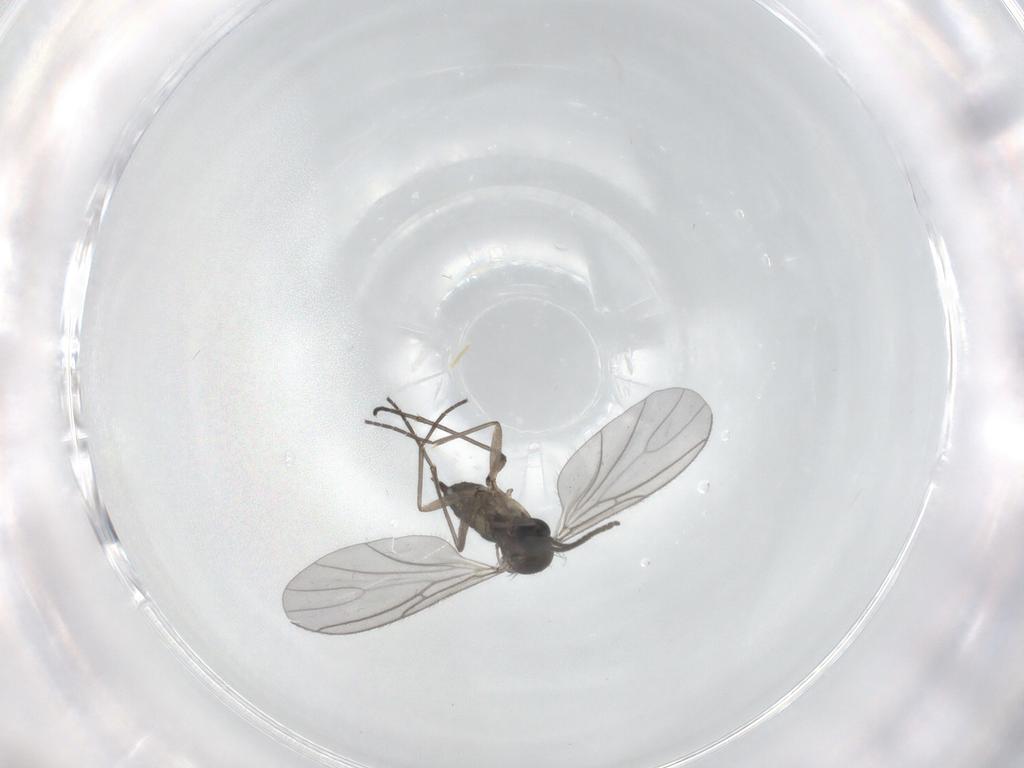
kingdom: Animalia
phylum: Arthropoda
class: Insecta
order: Diptera
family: Sciaridae
